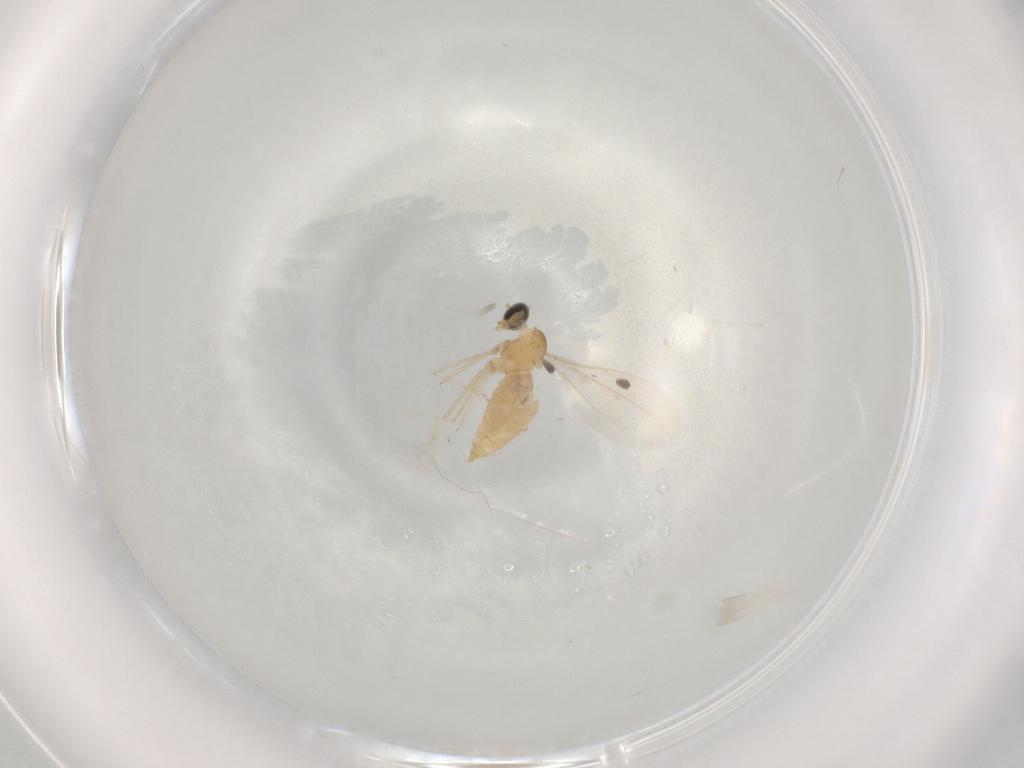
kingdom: Animalia
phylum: Arthropoda
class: Insecta
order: Diptera
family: Cecidomyiidae
